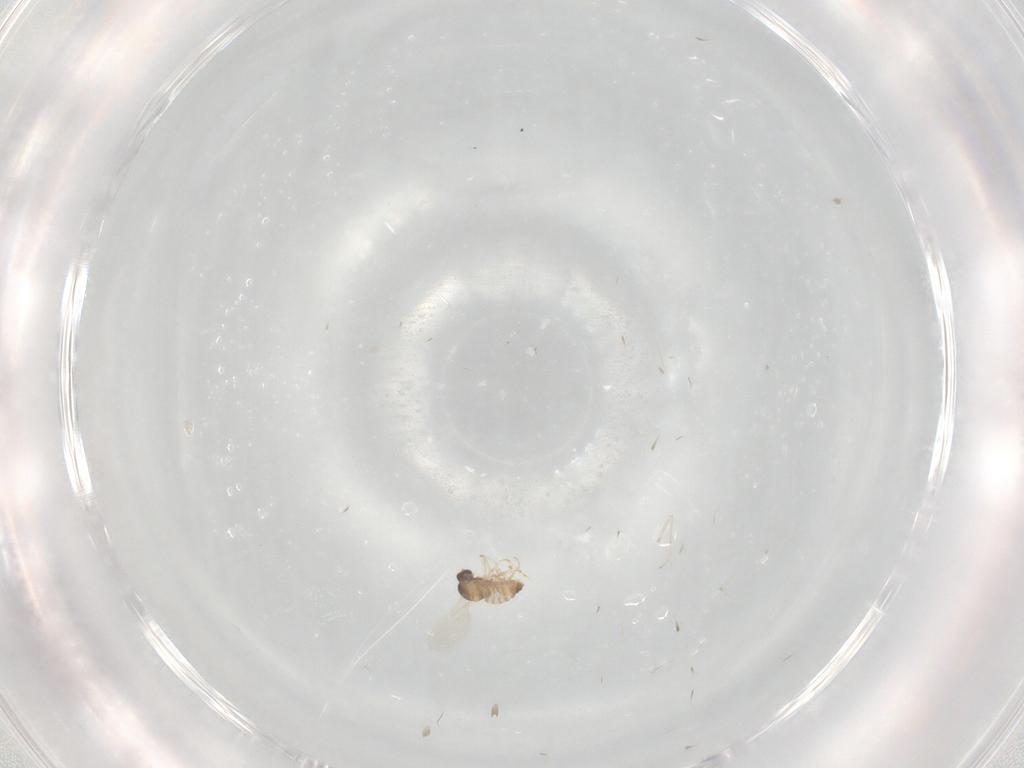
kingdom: Animalia
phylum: Arthropoda
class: Insecta
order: Diptera
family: Cecidomyiidae
